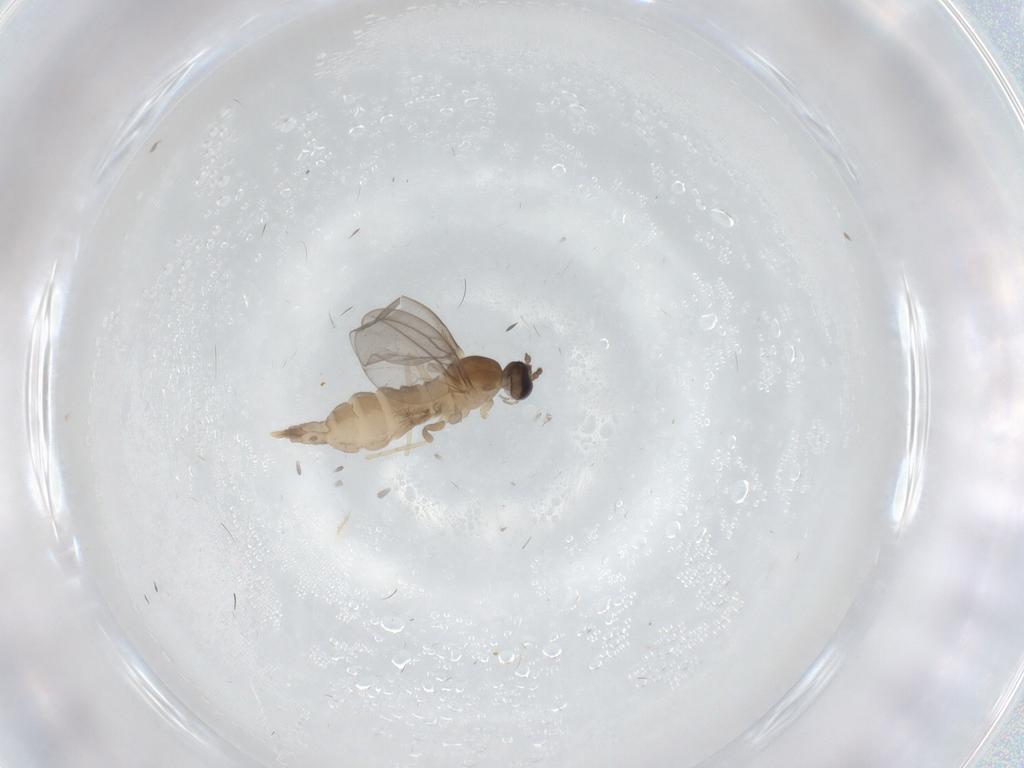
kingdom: Animalia
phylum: Arthropoda
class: Insecta
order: Diptera
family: Cecidomyiidae
